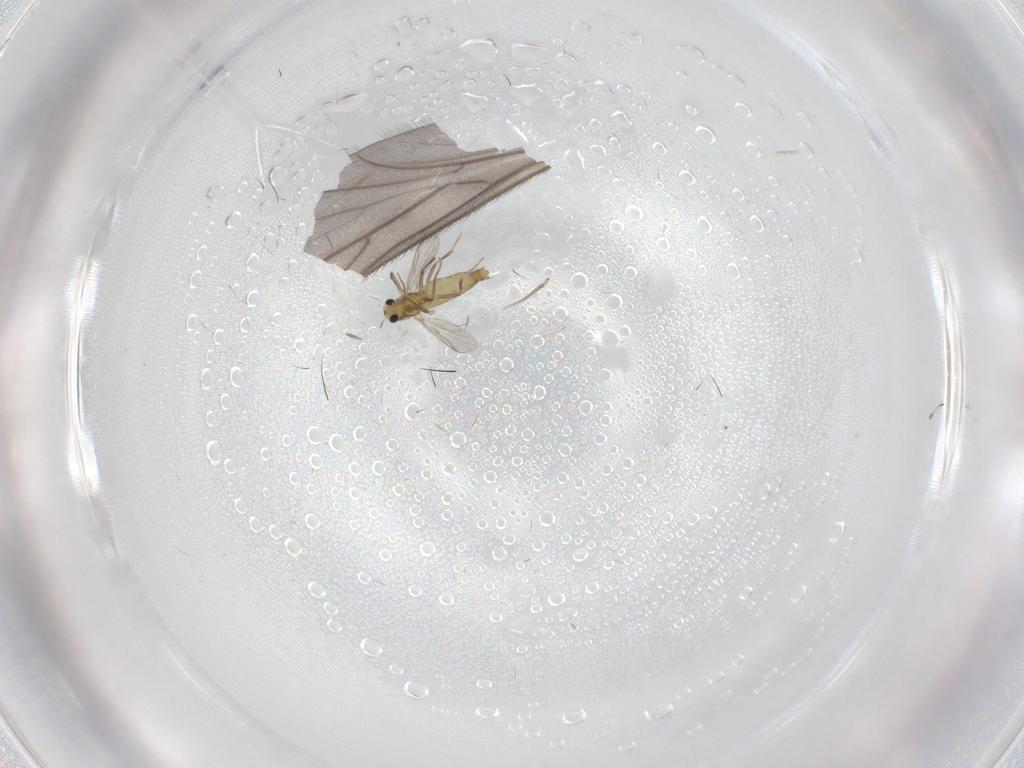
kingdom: Animalia
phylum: Arthropoda
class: Insecta
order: Diptera
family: Chironomidae
